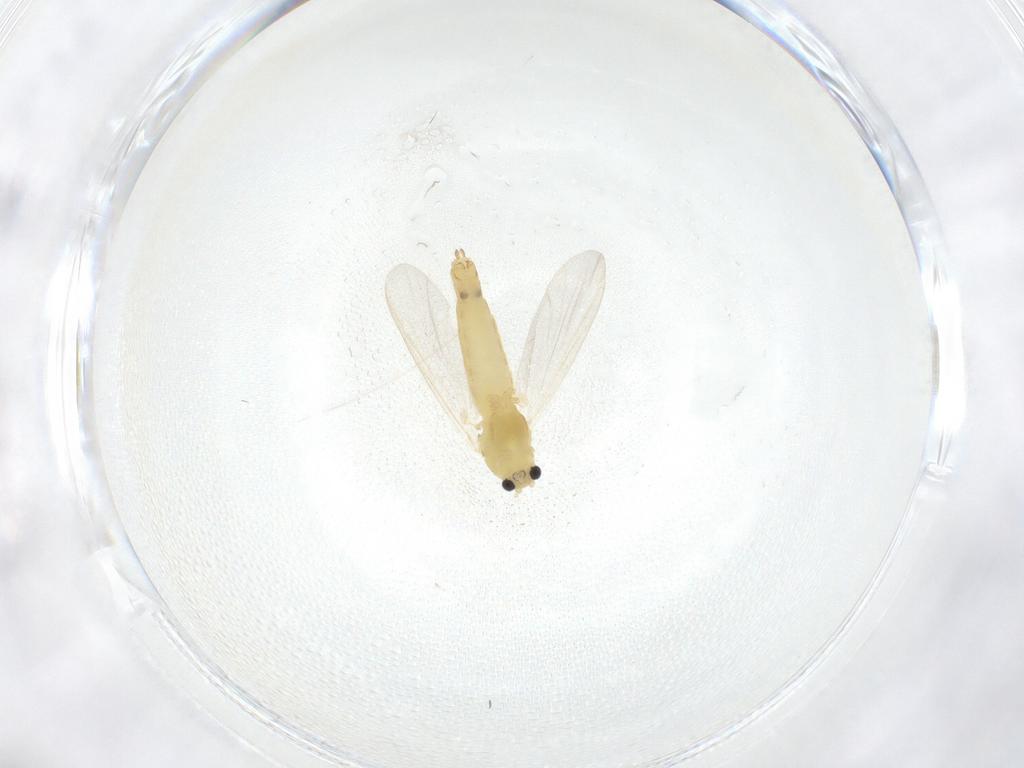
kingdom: Animalia
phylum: Arthropoda
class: Insecta
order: Diptera
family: Chironomidae
